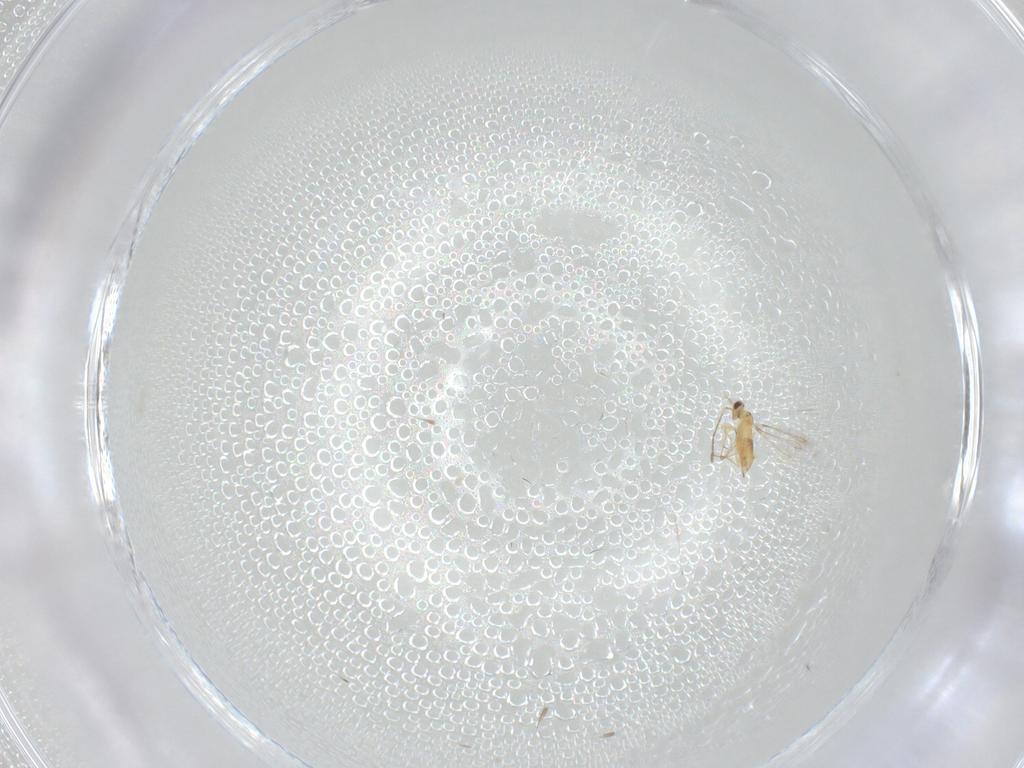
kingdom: Animalia
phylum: Arthropoda
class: Insecta
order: Hymenoptera
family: Mymaridae
